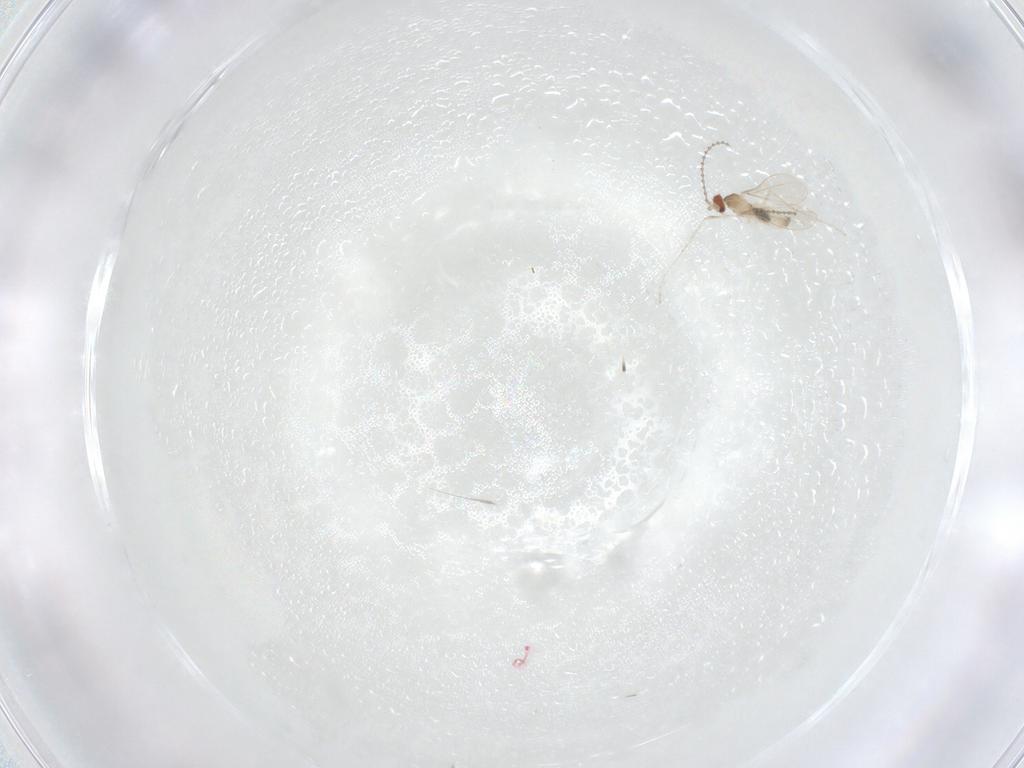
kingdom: Animalia
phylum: Arthropoda
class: Insecta
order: Diptera
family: Cecidomyiidae
